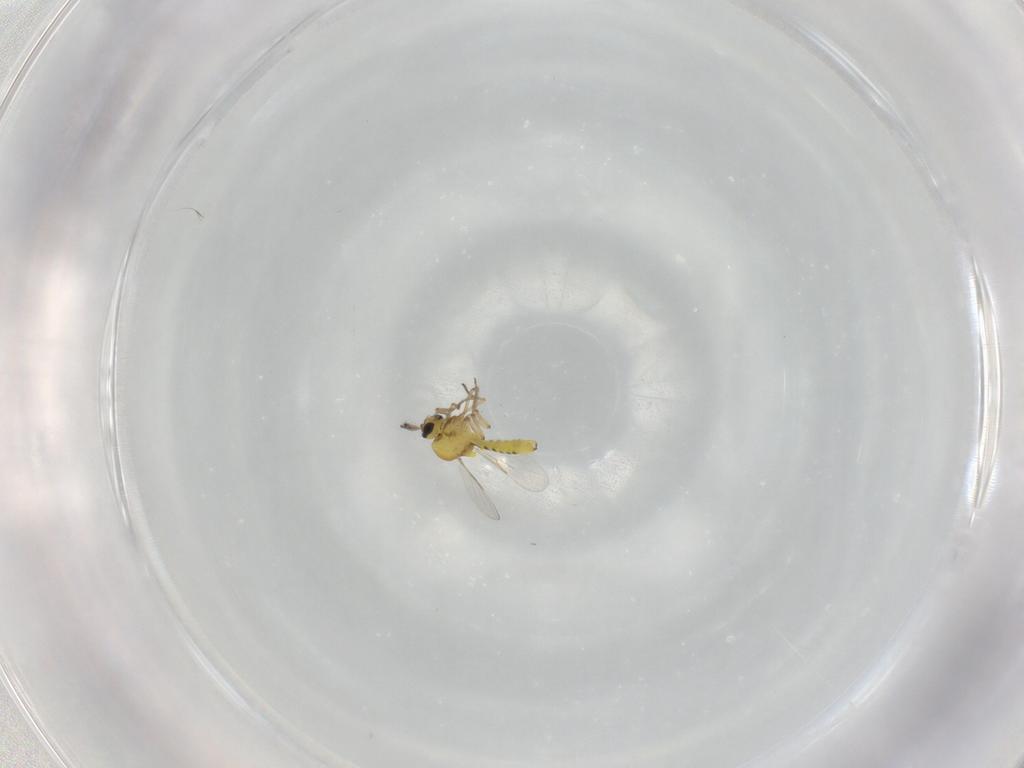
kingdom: Animalia
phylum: Arthropoda
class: Insecta
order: Diptera
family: Ceratopogonidae
